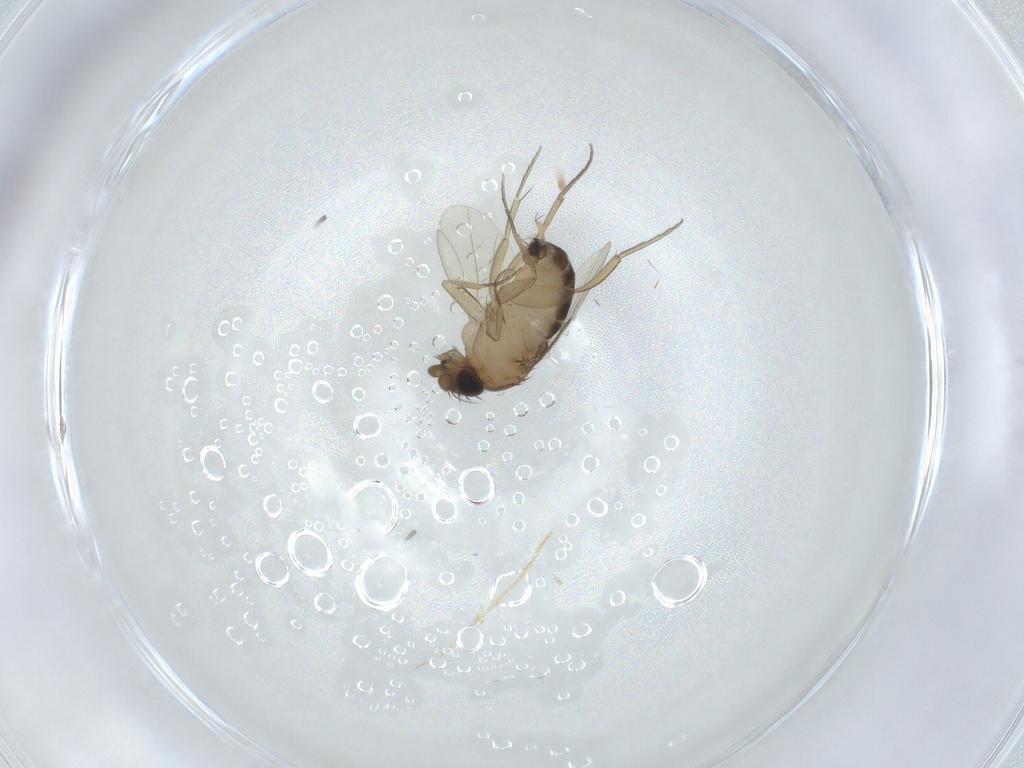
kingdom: Animalia
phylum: Arthropoda
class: Insecta
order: Diptera
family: Phoridae
